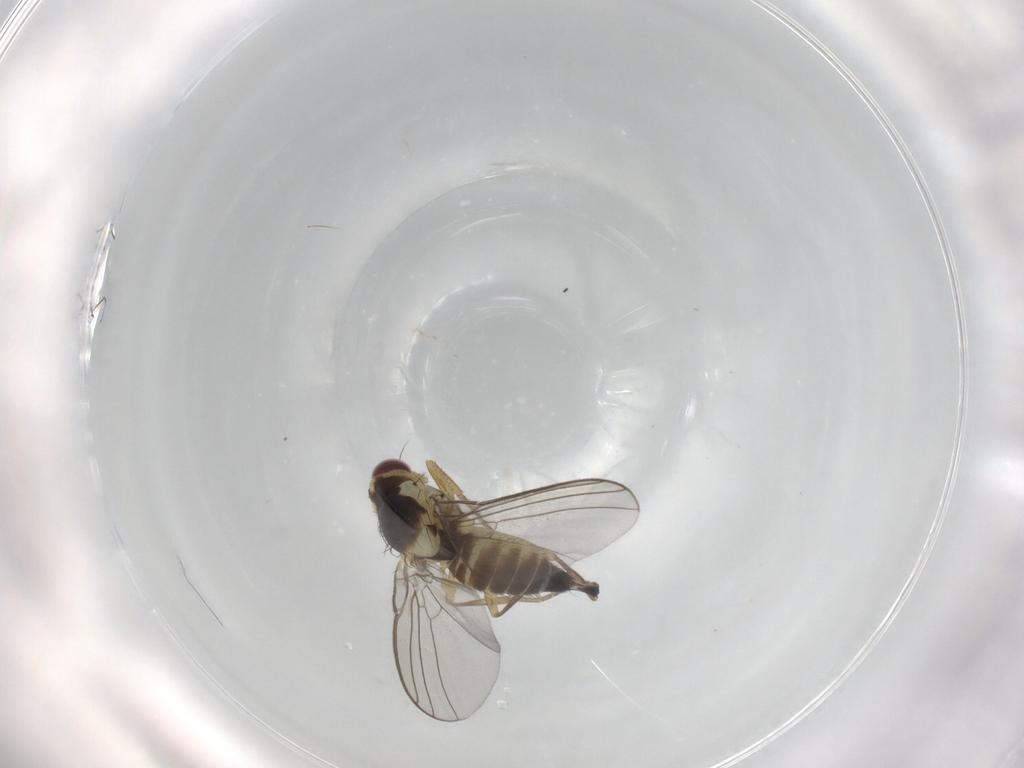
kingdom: Animalia
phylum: Arthropoda
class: Insecta
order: Diptera
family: Agromyzidae
